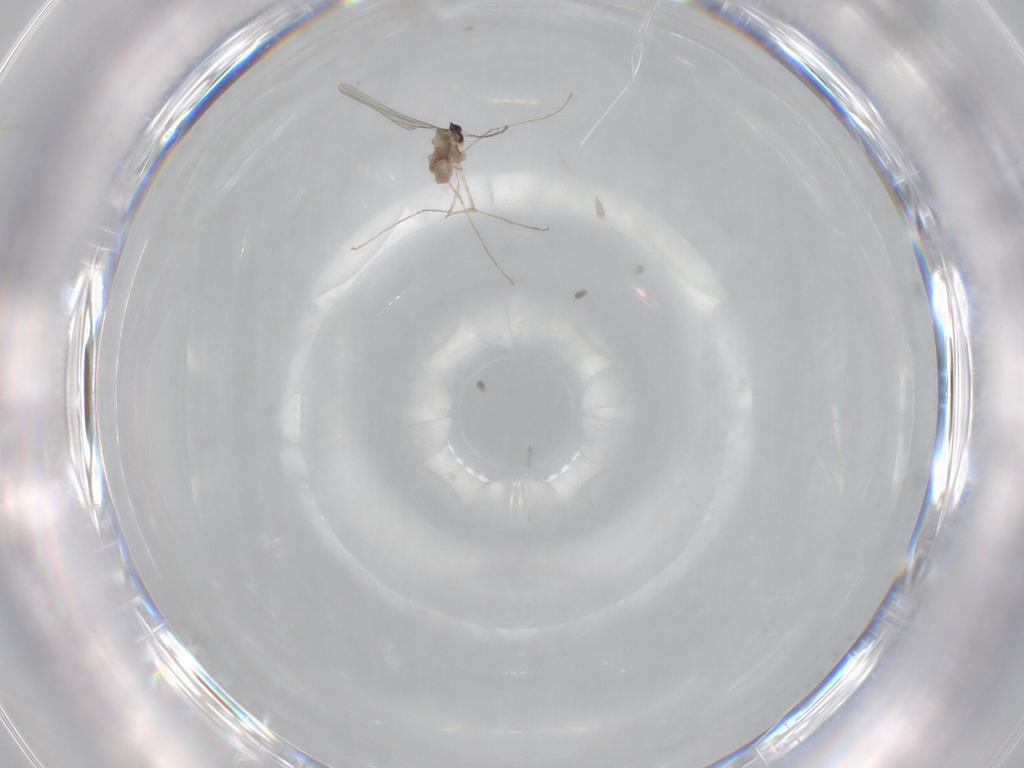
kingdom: Animalia
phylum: Arthropoda
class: Insecta
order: Diptera
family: Cecidomyiidae
